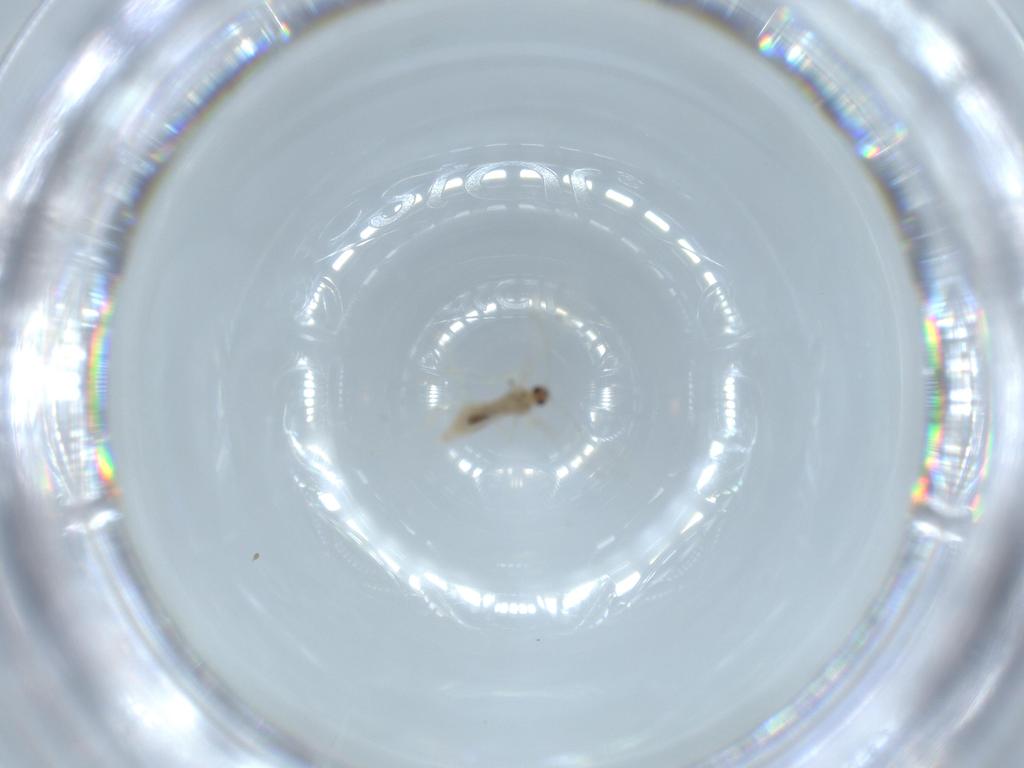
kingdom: Animalia
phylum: Arthropoda
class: Insecta
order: Diptera
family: Cecidomyiidae
